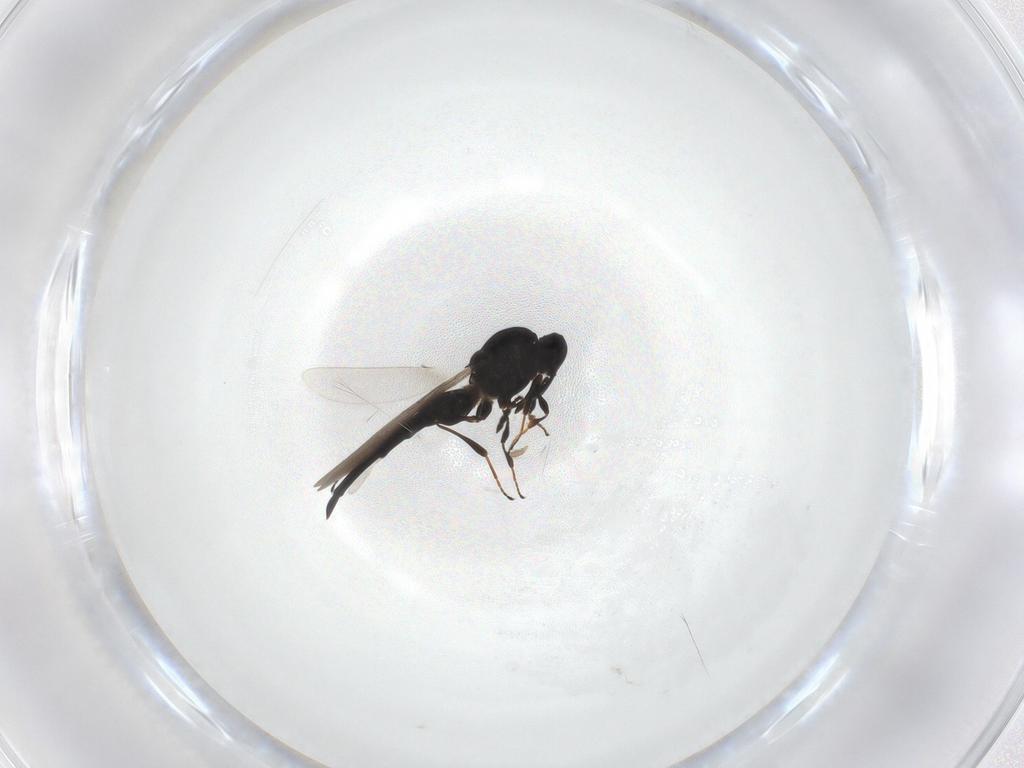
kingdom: Animalia
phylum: Arthropoda
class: Insecta
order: Hymenoptera
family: Platygastridae
